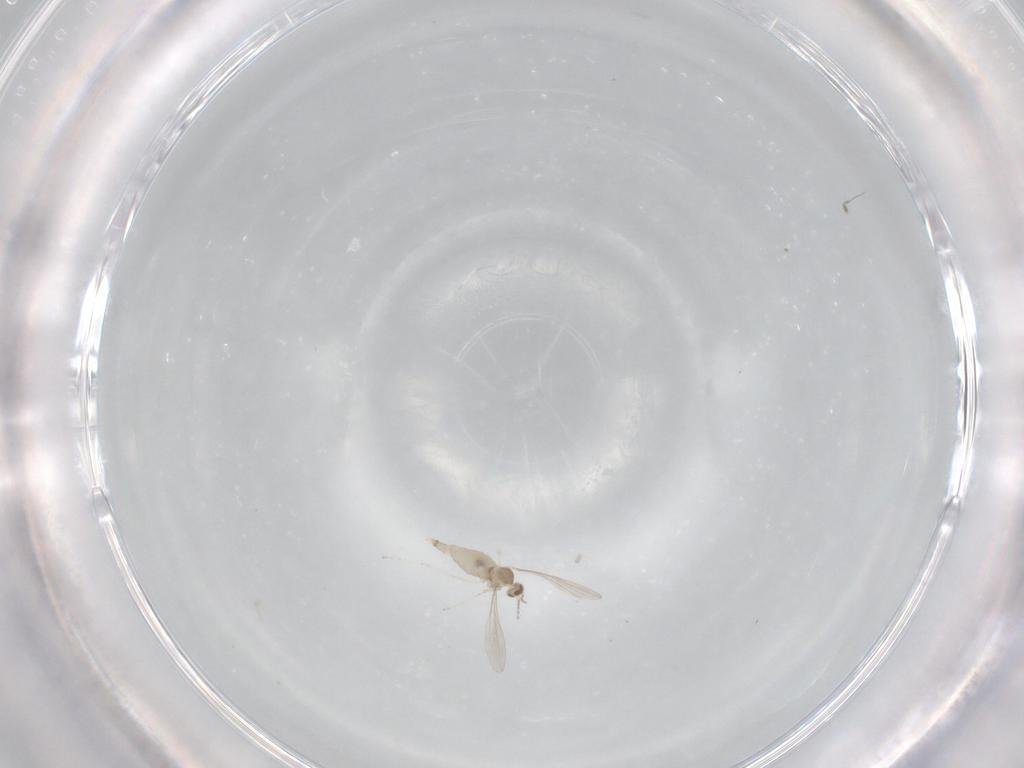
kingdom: Animalia
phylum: Arthropoda
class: Insecta
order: Diptera
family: Cecidomyiidae
